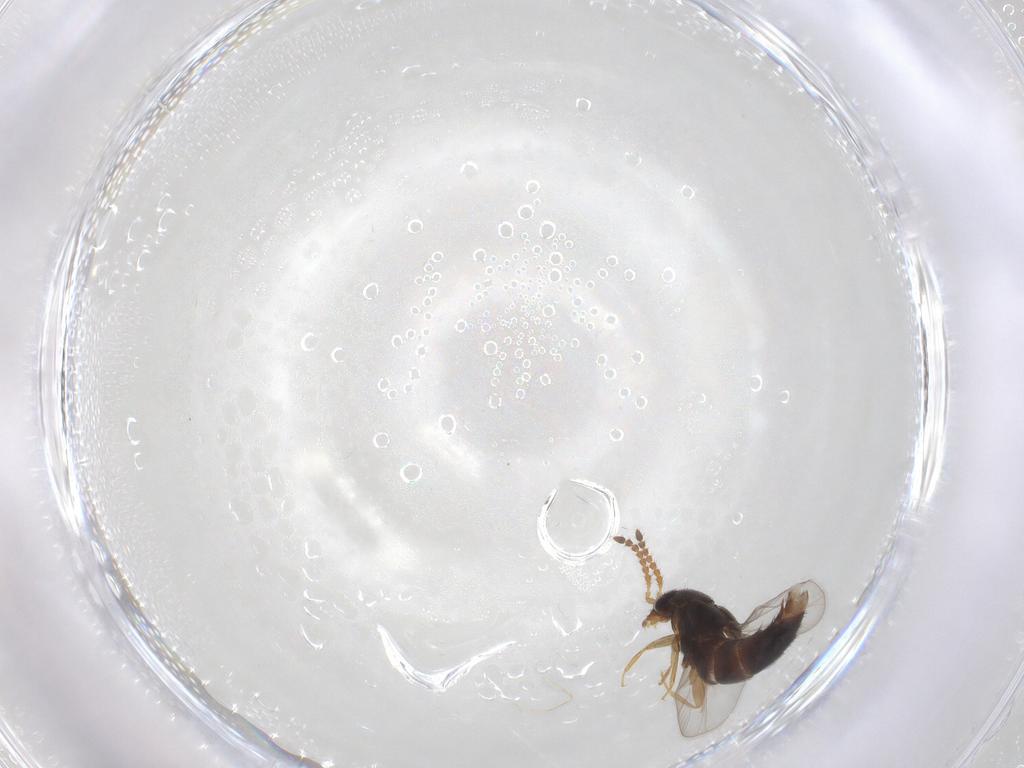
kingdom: Animalia
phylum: Arthropoda
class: Insecta
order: Coleoptera
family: Staphylinidae
